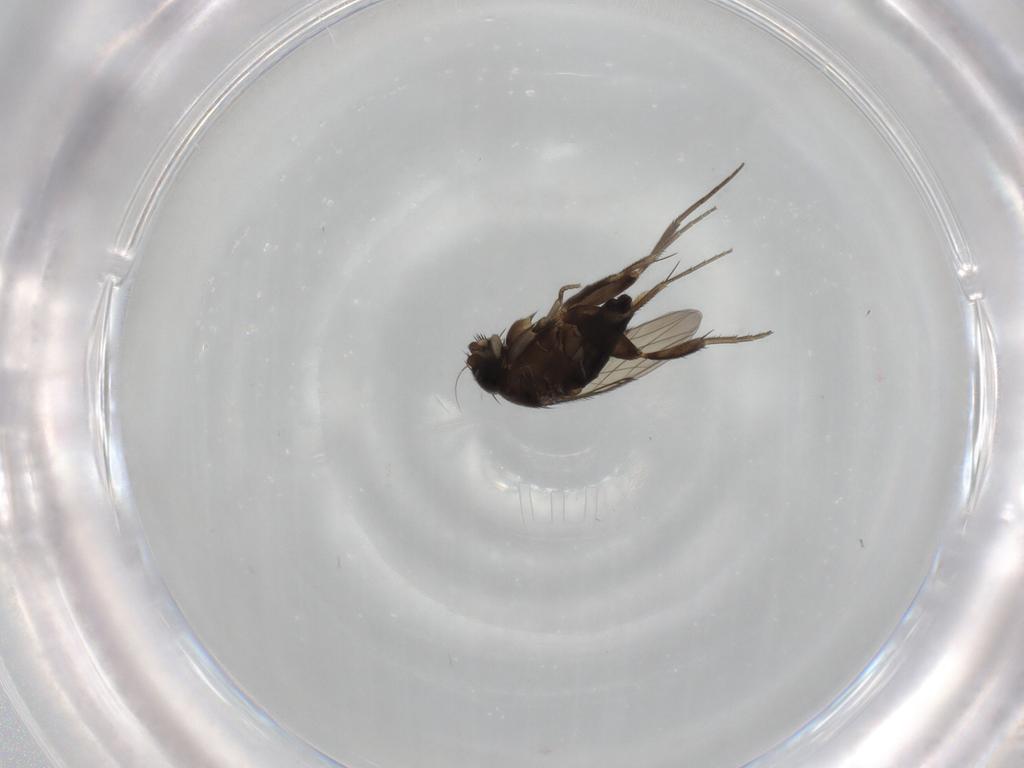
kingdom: Animalia
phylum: Arthropoda
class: Insecta
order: Diptera
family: Phoridae
